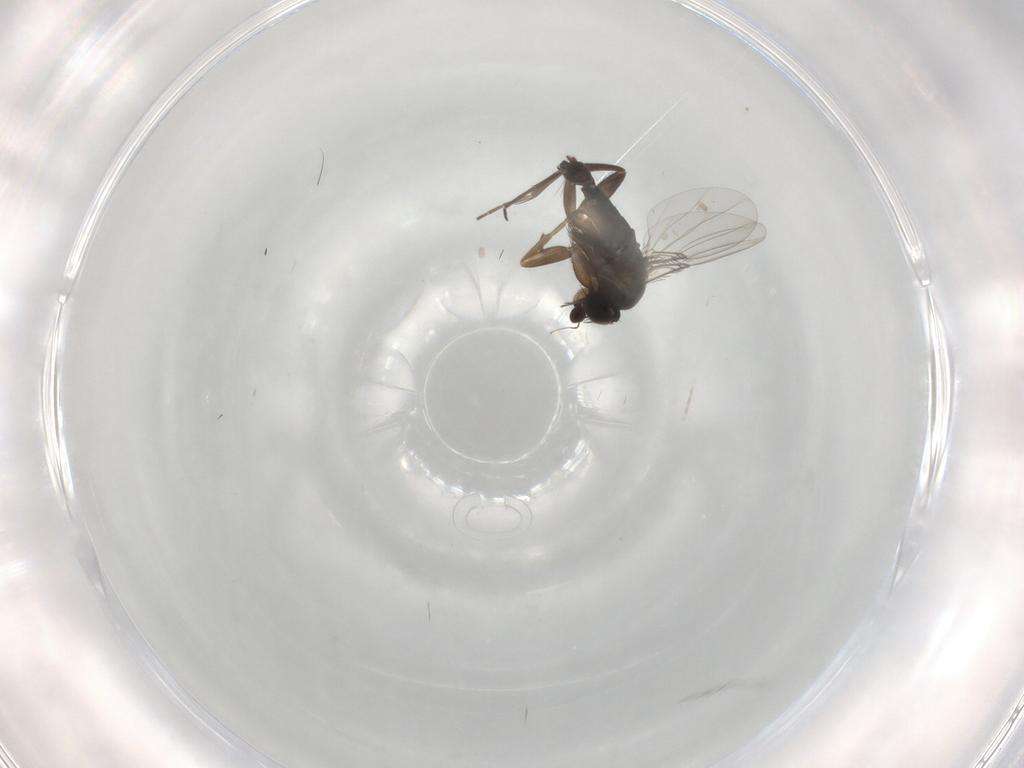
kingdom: Animalia
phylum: Arthropoda
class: Insecta
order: Diptera
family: Phoridae
